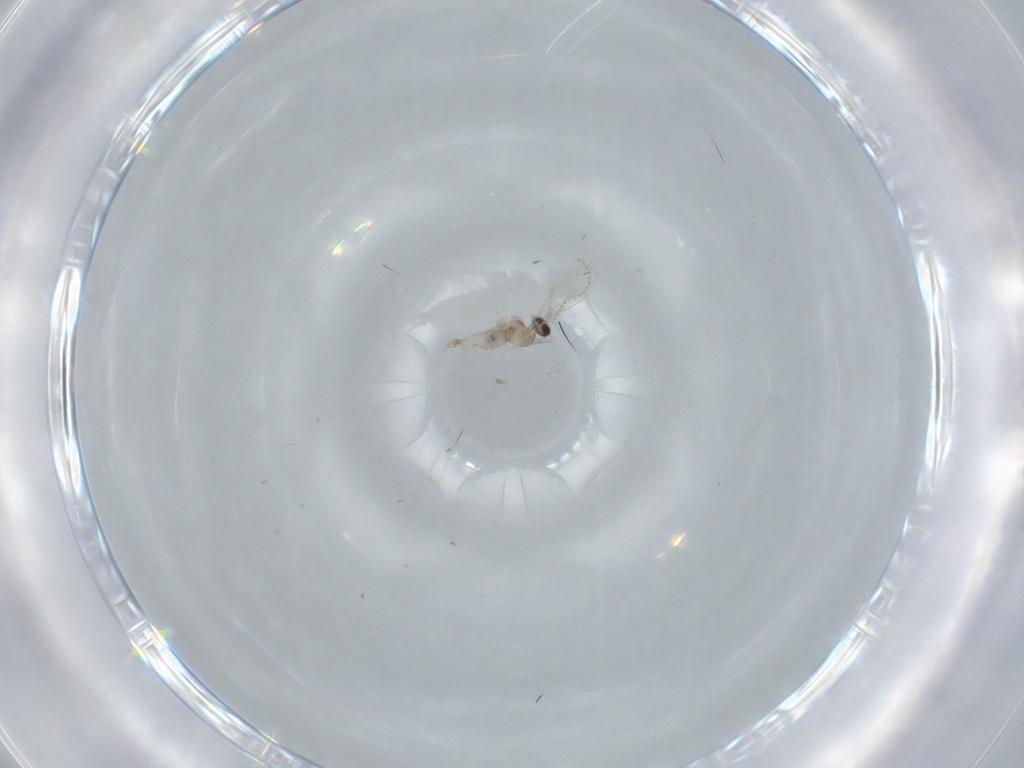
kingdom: Animalia
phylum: Arthropoda
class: Insecta
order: Diptera
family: Cecidomyiidae
